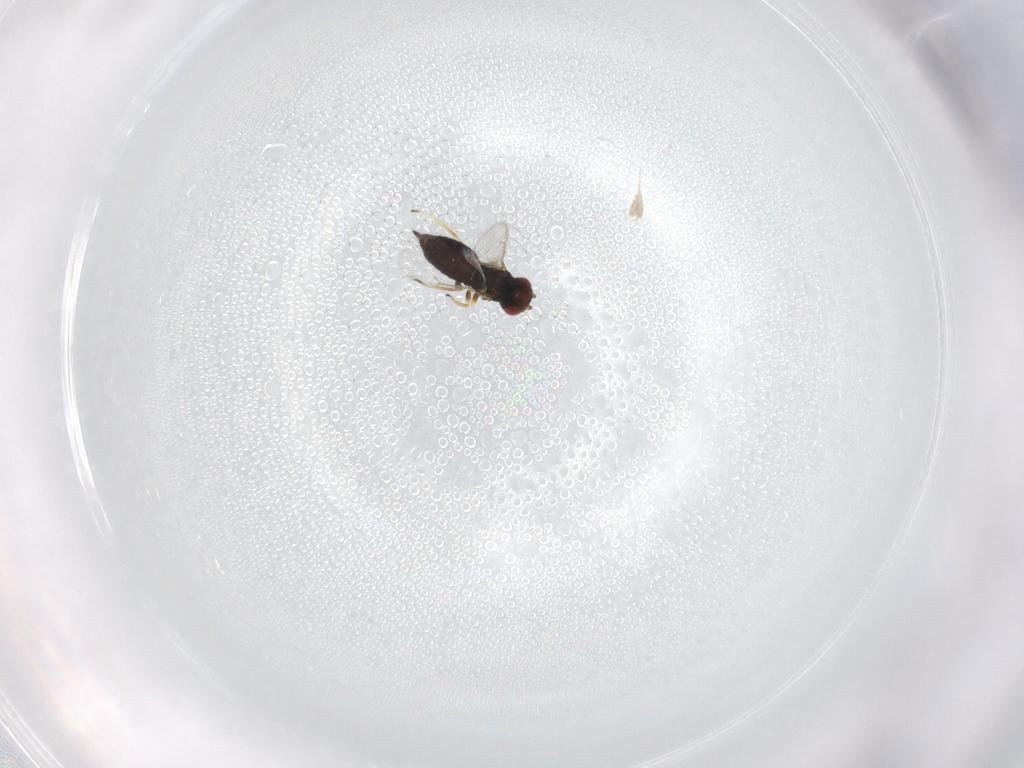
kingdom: Animalia
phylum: Arthropoda
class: Insecta
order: Hymenoptera
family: Eulophidae
